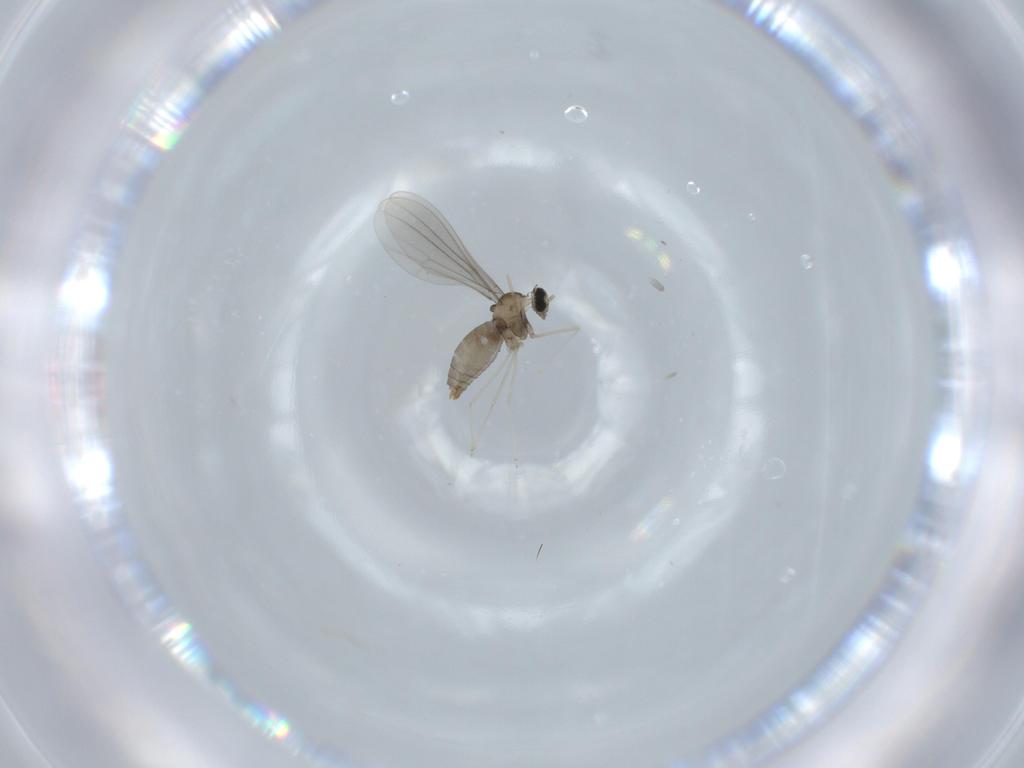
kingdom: Animalia
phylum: Arthropoda
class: Insecta
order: Diptera
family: Cecidomyiidae
